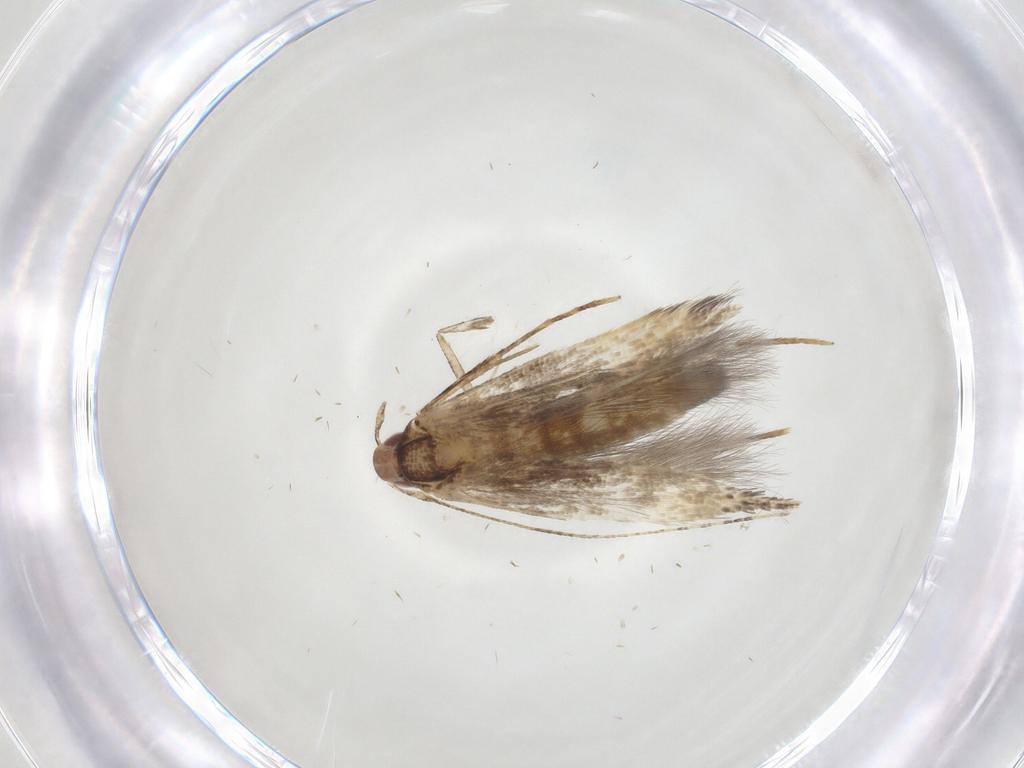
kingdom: Animalia
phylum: Arthropoda
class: Insecta
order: Lepidoptera
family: Cosmopterigidae
